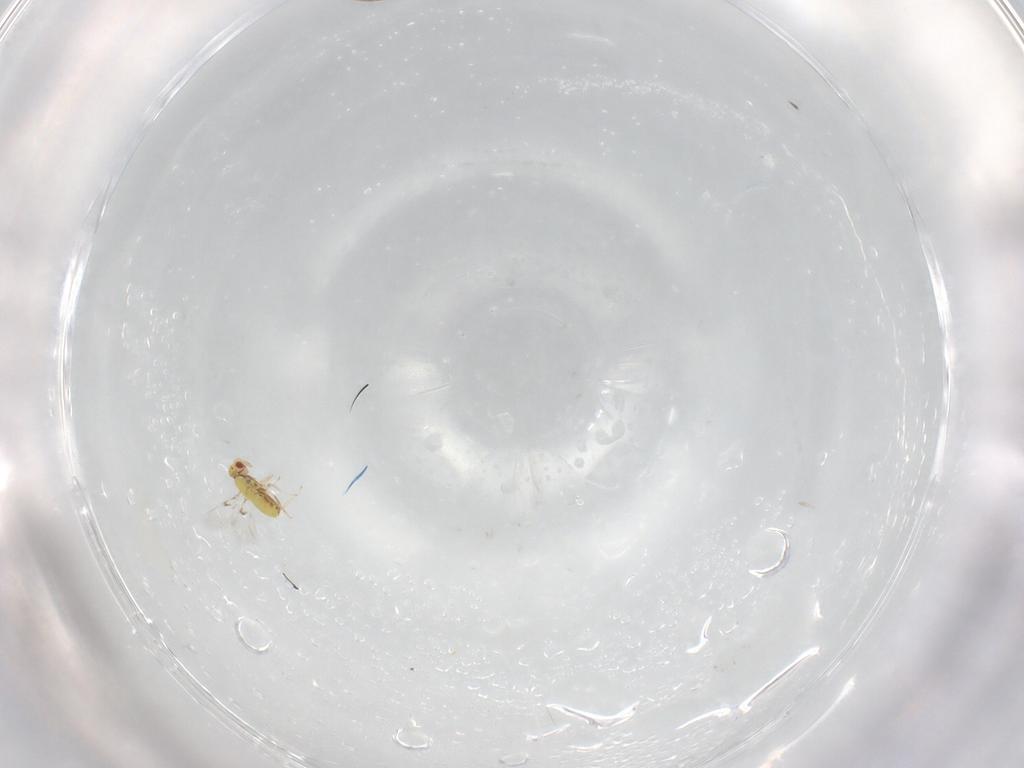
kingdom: Animalia
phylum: Arthropoda
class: Insecta
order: Hymenoptera
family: Trichogrammatidae
